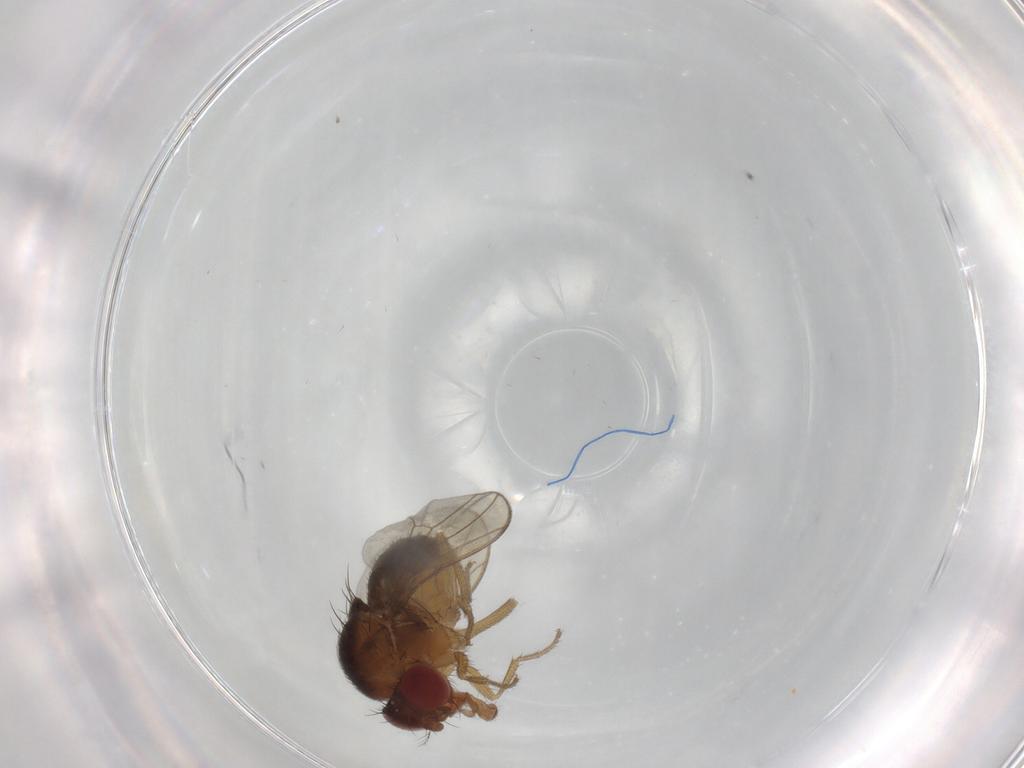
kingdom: Animalia
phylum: Arthropoda
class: Insecta
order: Diptera
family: Drosophilidae
